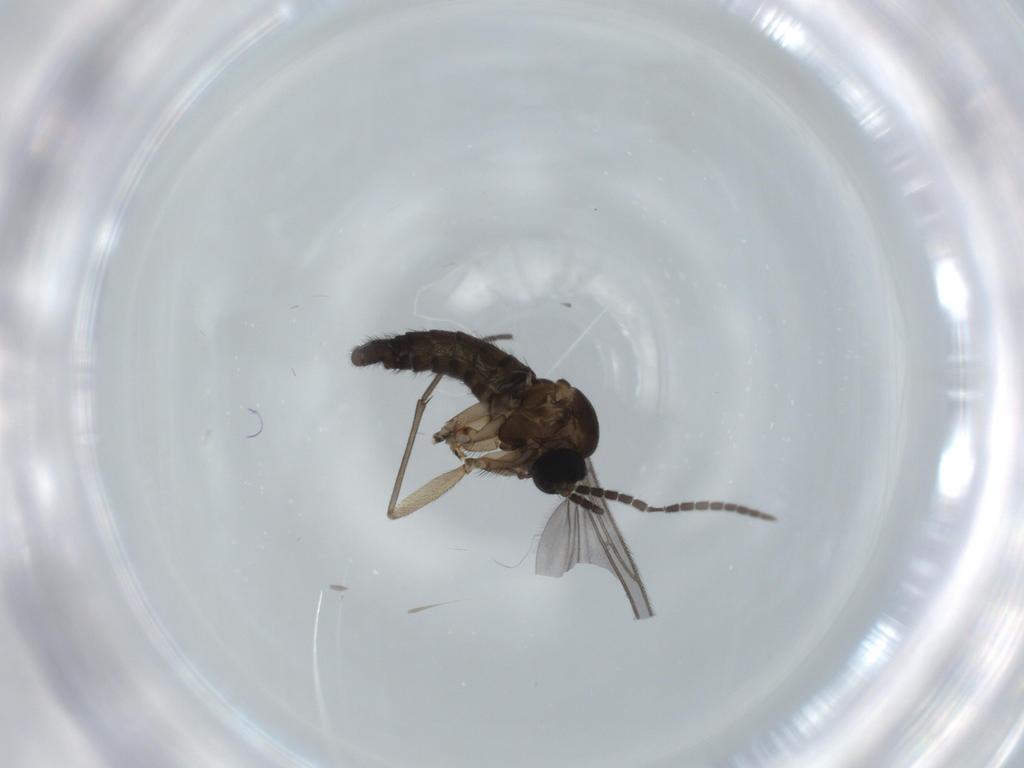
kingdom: Animalia
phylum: Arthropoda
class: Insecta
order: Diptera
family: Sciaridae
